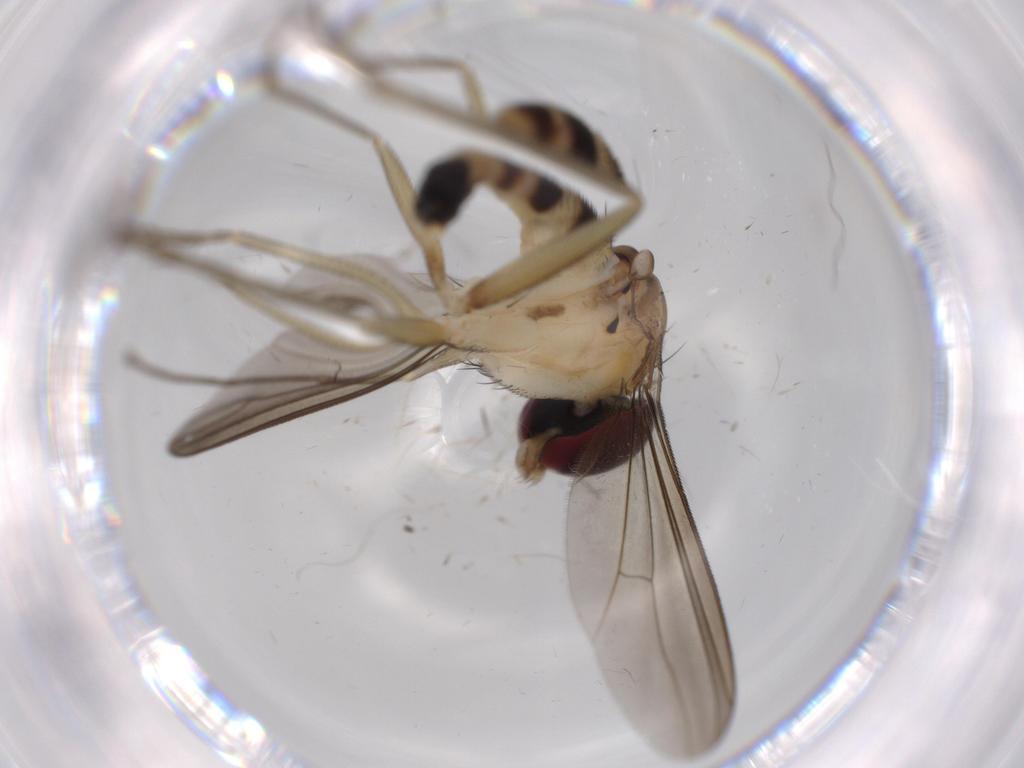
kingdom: Animalia
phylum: Arthropoda
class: Insecta
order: Diptera
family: Dolichopodidae
